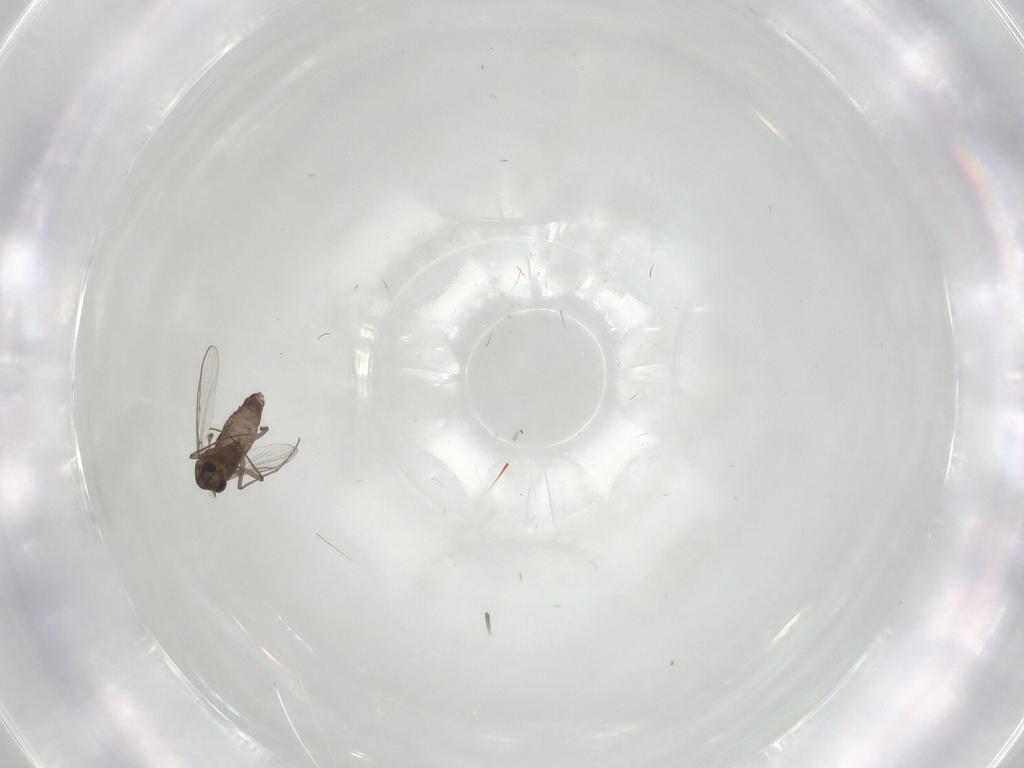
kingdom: Animalia
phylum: Arthropoda
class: Insecta
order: Diptera
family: Chironomidae
